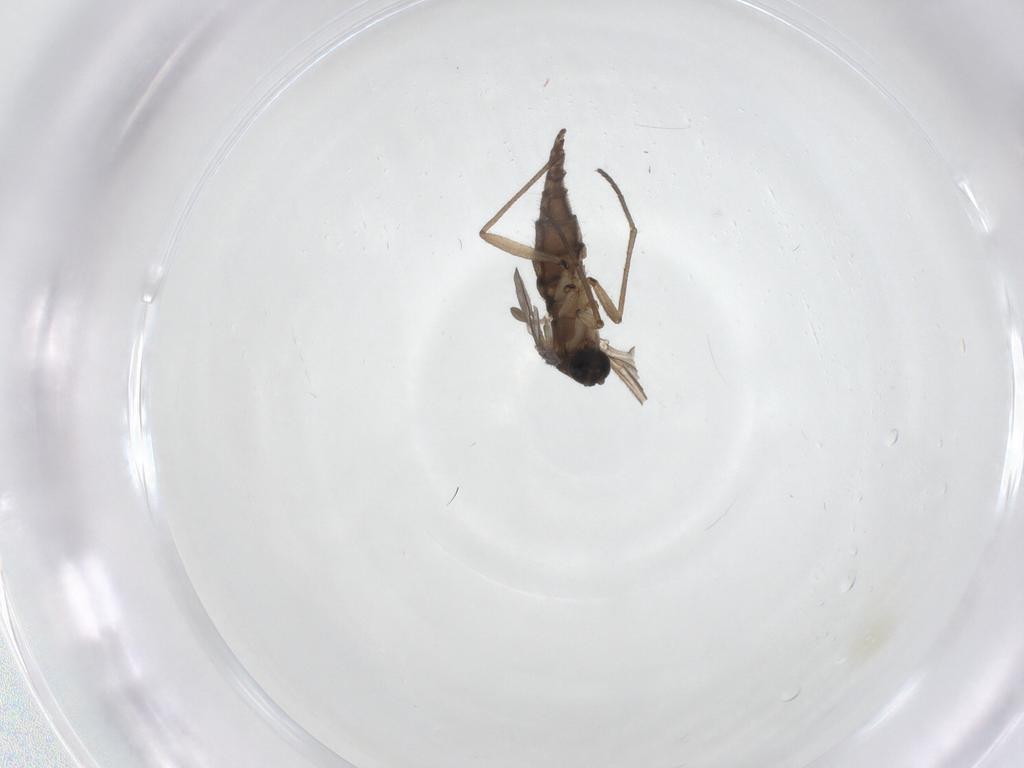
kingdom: Animalia
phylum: Arthropoda
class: Insecta
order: Diptera
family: Sciaridae
